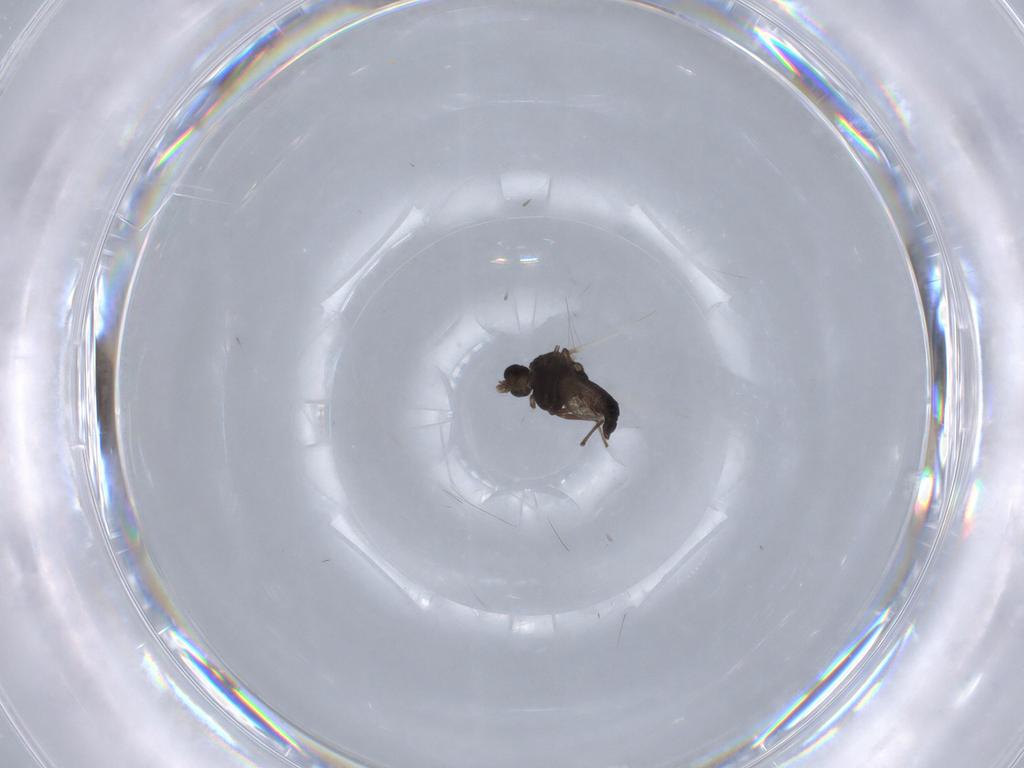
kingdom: Animalia
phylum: Arthropoda
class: Insecta
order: Diptera
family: Chironomidae
